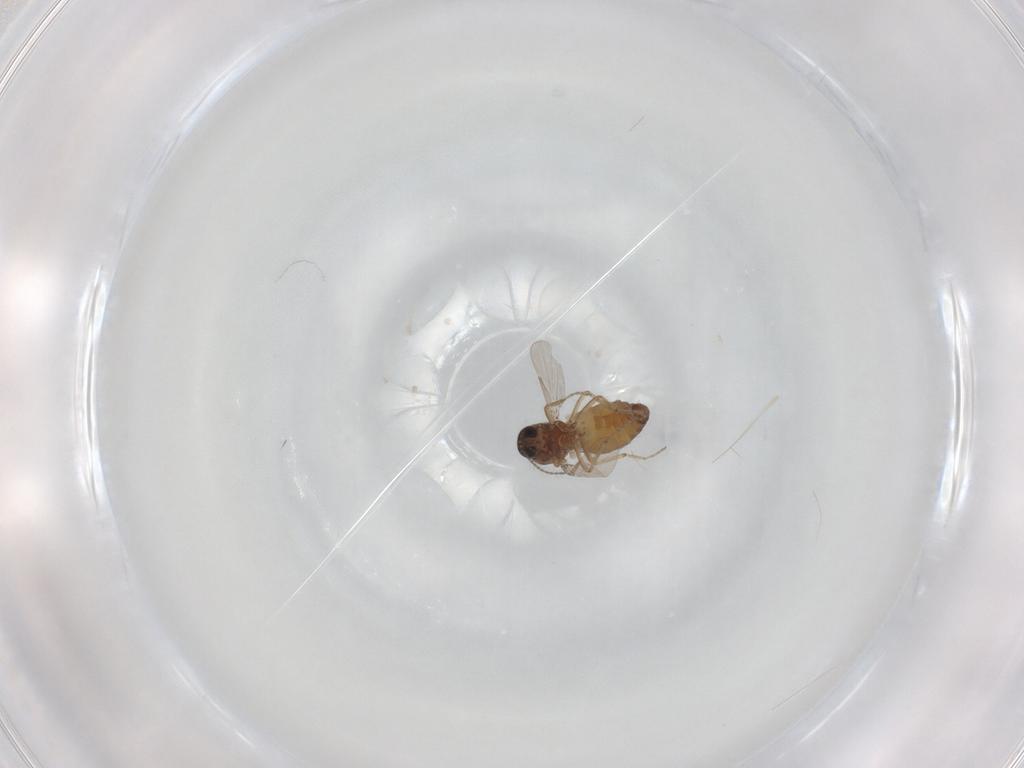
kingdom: Animalia
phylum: Arthropoda
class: Insecta
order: Diptera
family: Ceratopogonidae
